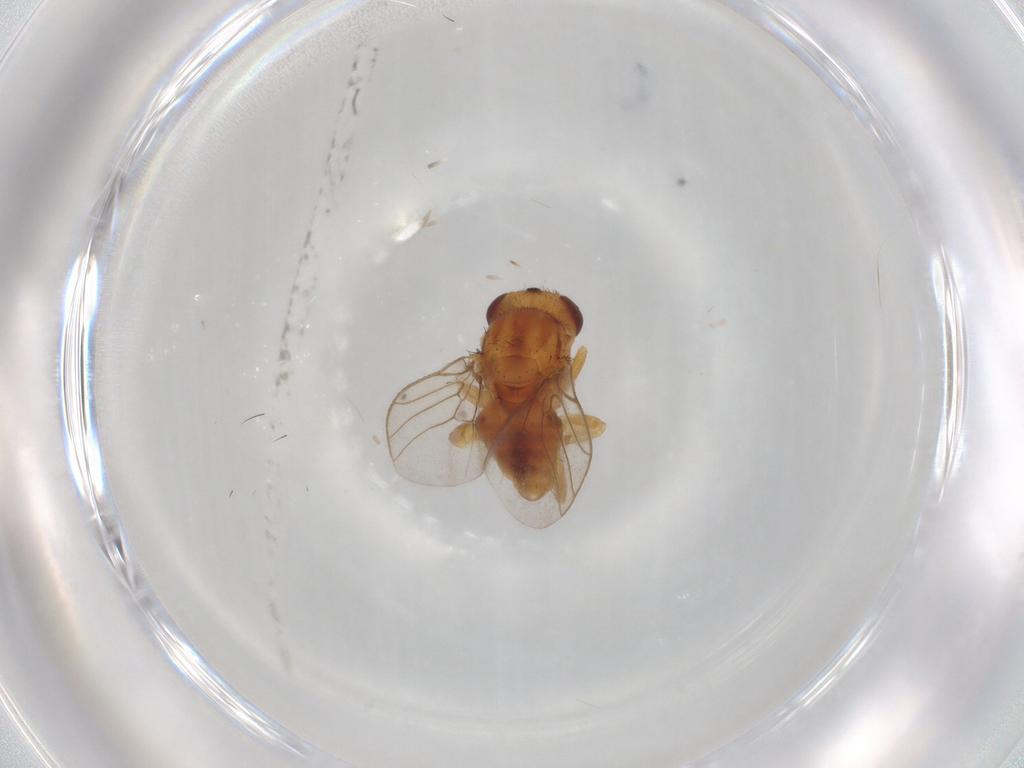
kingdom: Animalia
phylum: Arthropoda
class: Insecta
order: Diptera
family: Chloropidae
